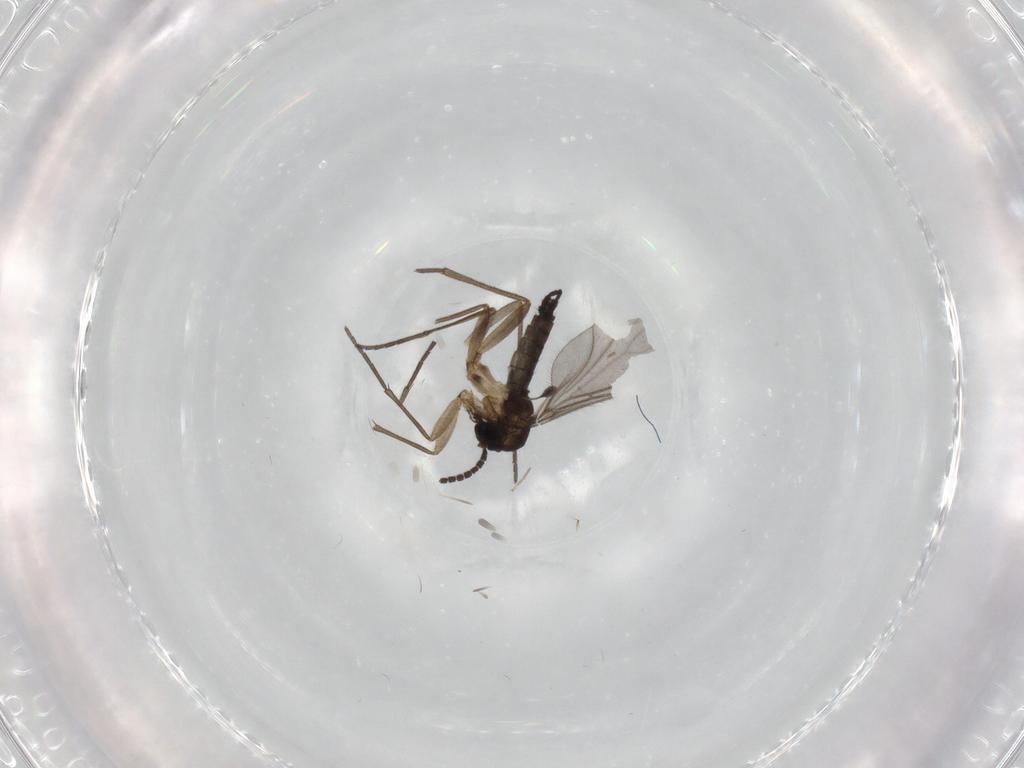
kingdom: Animalia
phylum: Arthropoda
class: Insecta
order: Diptera
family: Sciaridae
